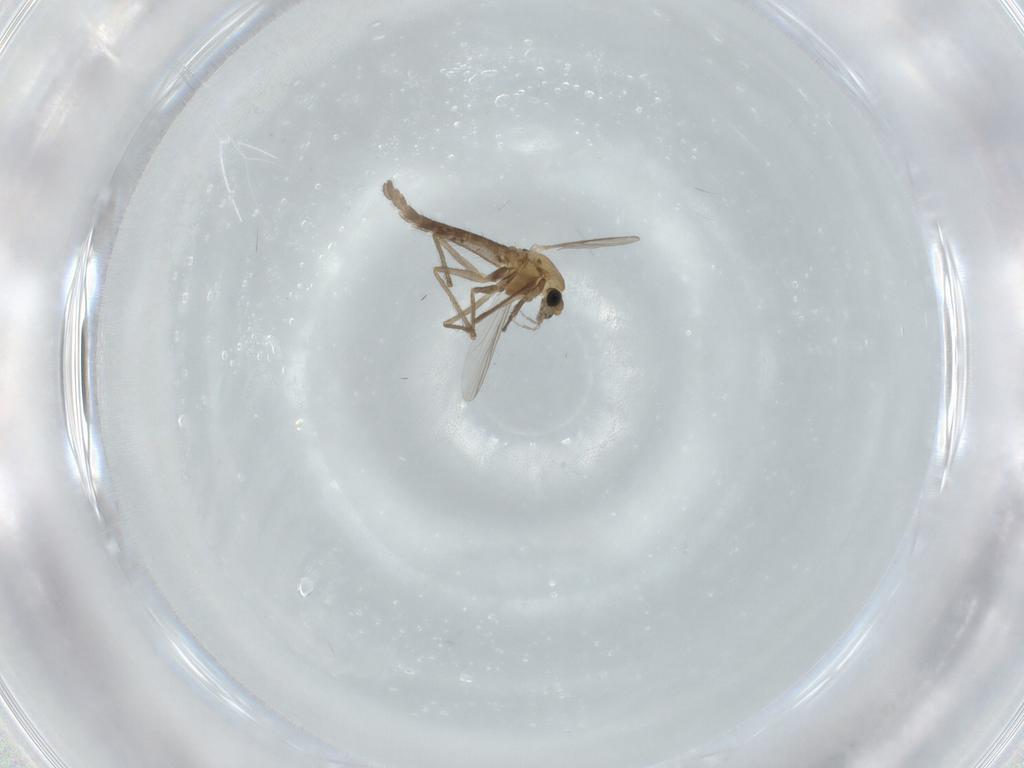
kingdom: Animalia
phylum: Arthropoda
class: Insecta
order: Diptera
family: Chironomidae
